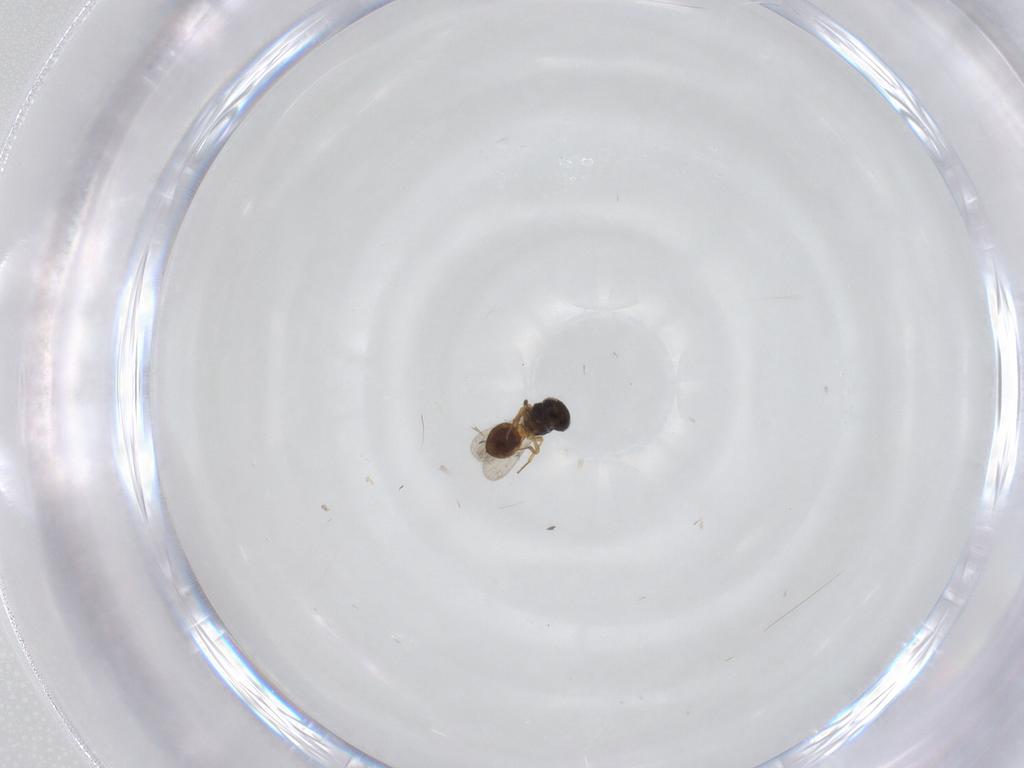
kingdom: Animalia
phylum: Arthropoda
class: Insecta
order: Hymenoptera
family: Scelionidae
